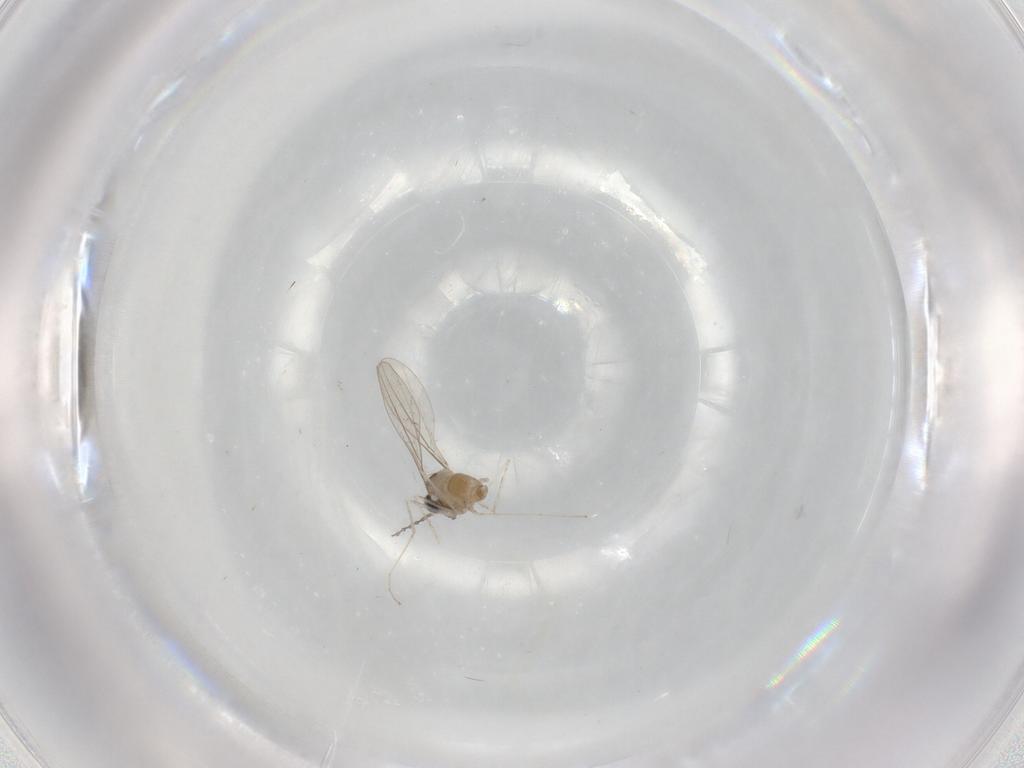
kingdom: Animalia
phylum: Arthropoda
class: Insecta
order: Diptera
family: Cecidomyiidae
